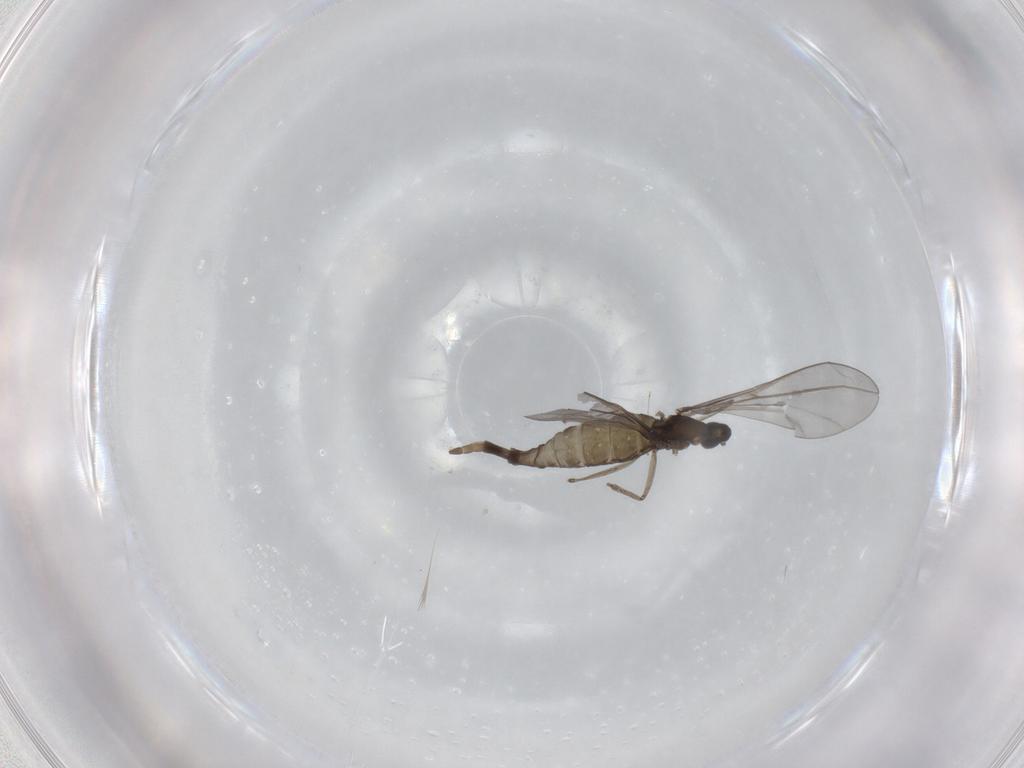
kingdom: Animalia
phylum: Arthropoda
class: Insecta
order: Diptera
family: Cecidomyiidae
